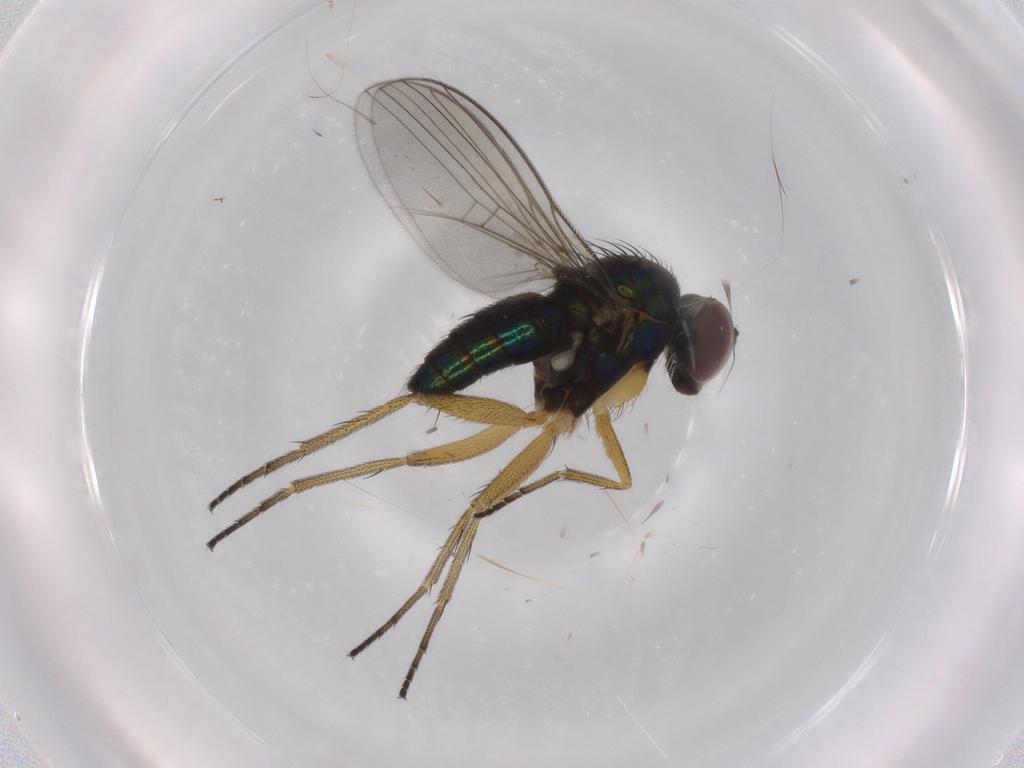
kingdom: Animalia
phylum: Arthropoda
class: Insecta
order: Diptera
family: Dolichopodidae
